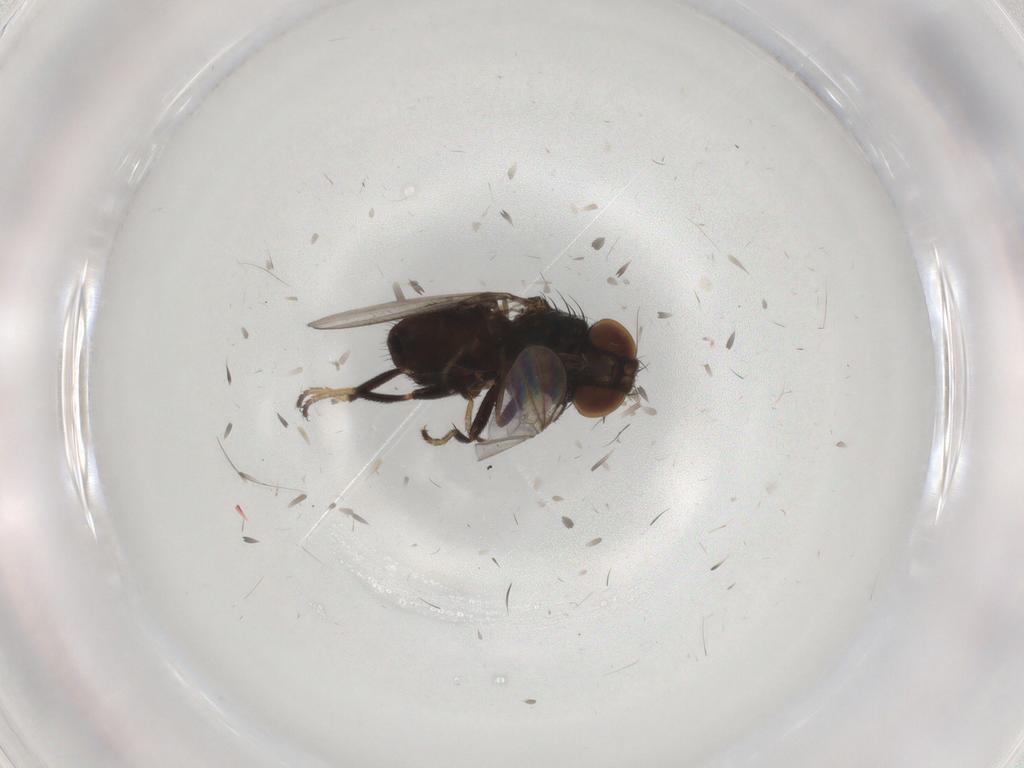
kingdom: Animalia
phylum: Arthropoda
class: Insecta
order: Diptera
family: Milichiidae
